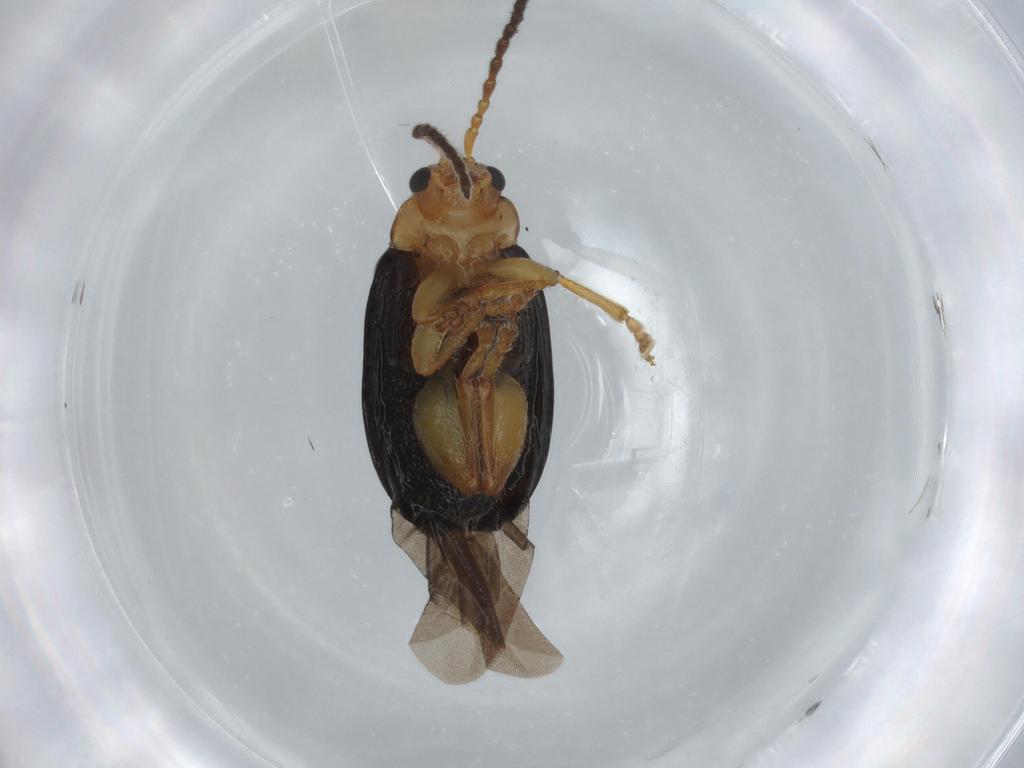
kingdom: Animalia
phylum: Arthropoda
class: Insecta
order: Coleoptera
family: Chrysomelidae
